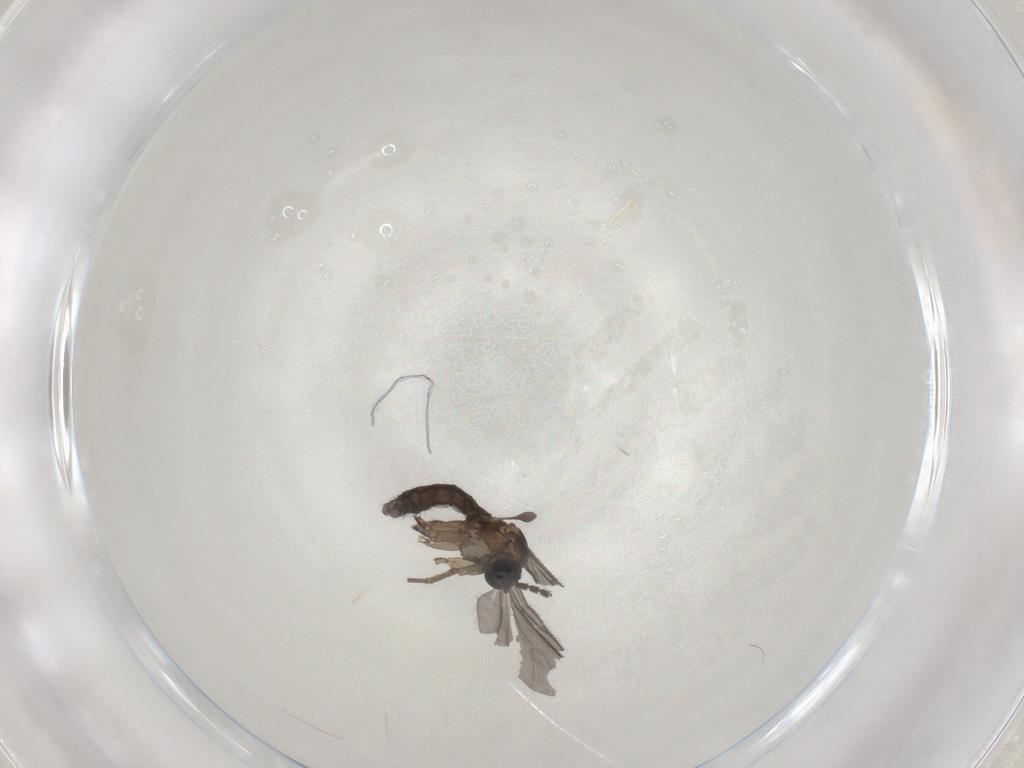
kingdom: Animalia
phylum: Arthropoda
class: Insecta
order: Diptera
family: Sciaridae
